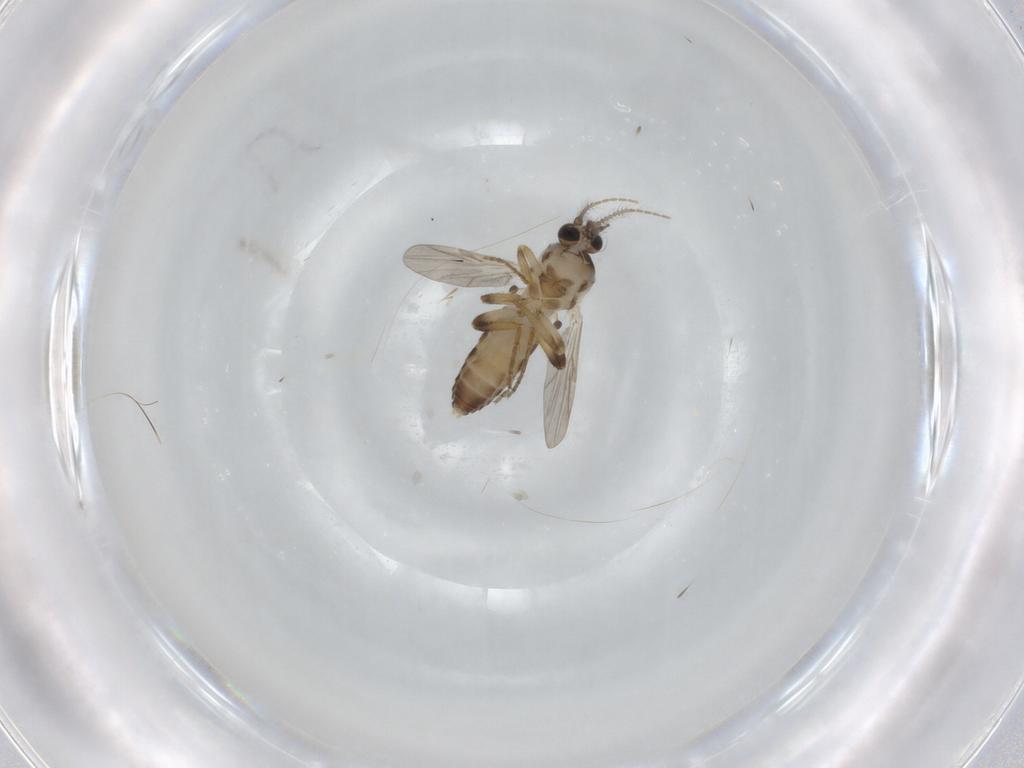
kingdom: Animalia
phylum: Arthropoda
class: Insecta
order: Diptera
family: Ceratopogonidae
